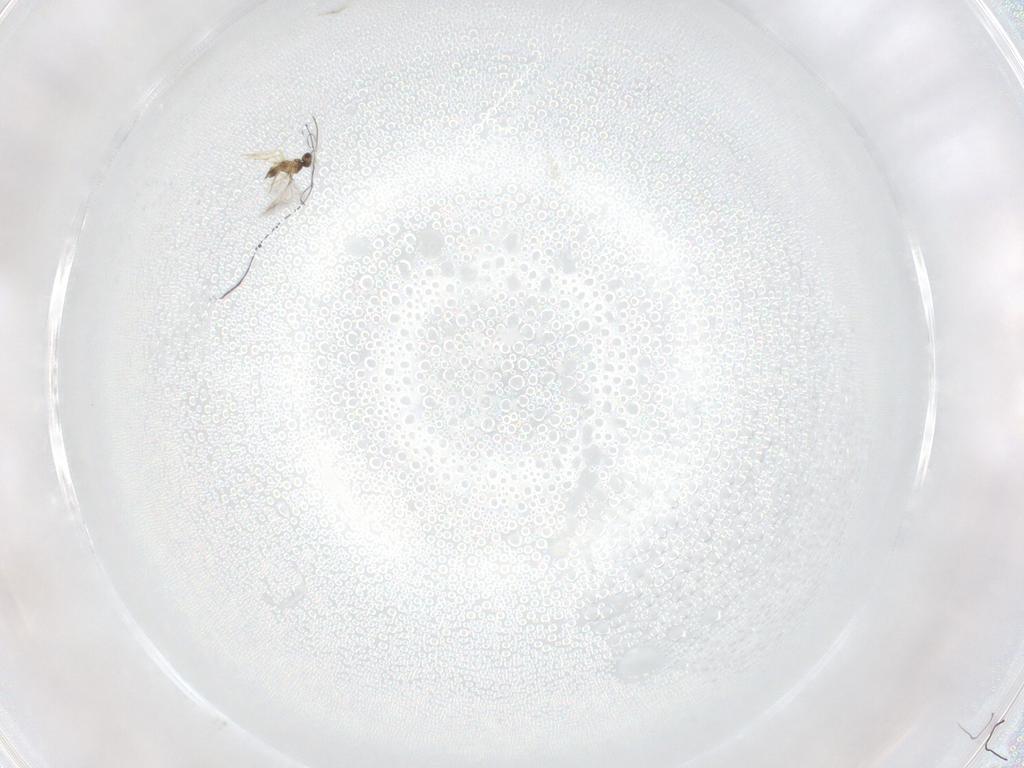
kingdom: Animalia
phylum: Arthropoda
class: Insecta
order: Hymenoptera
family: Mymaridae
